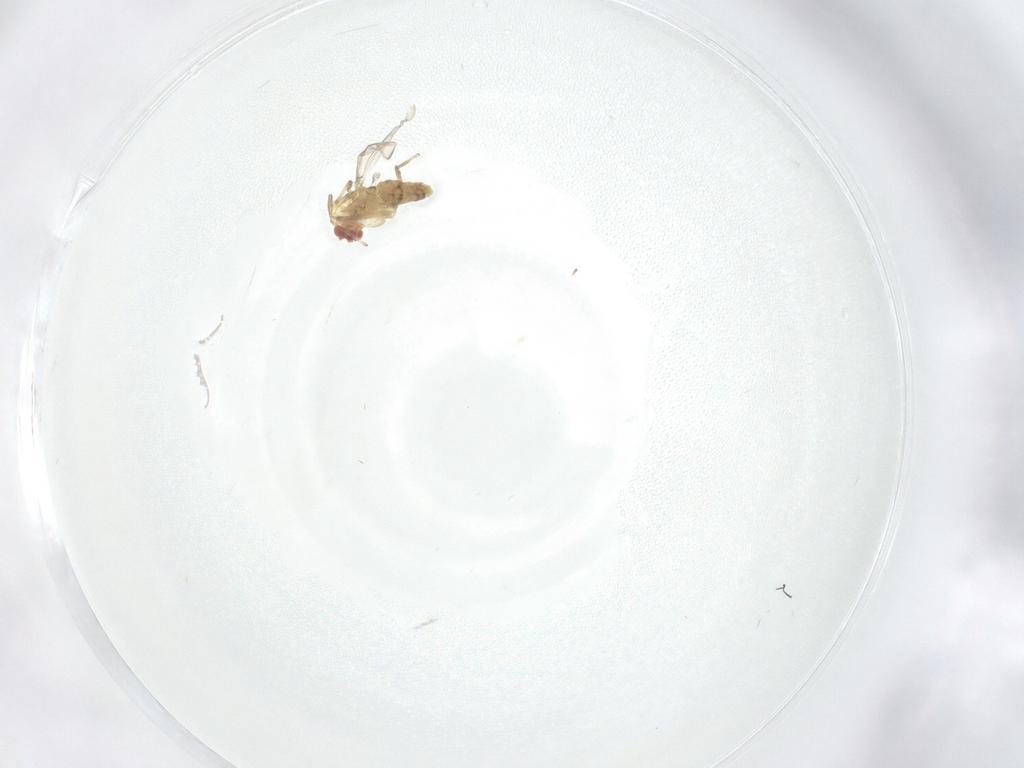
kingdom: Animalia
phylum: Arthropoda
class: Insecta
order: Diptera
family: Chironomidae
